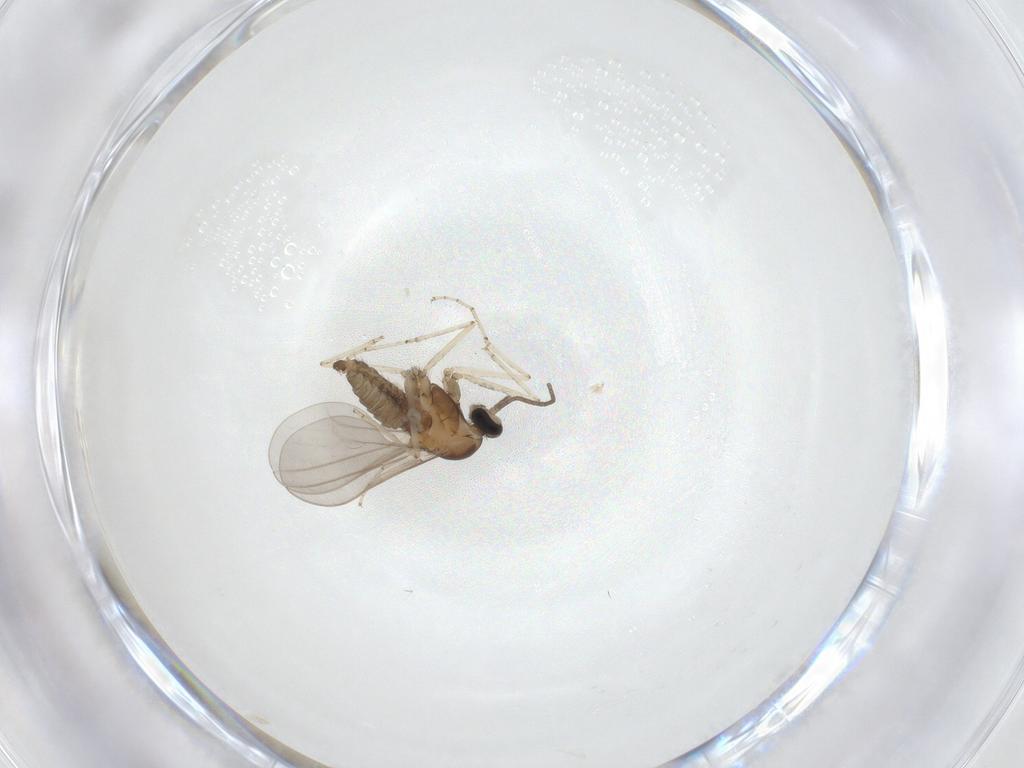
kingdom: Animalia
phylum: Arthropoda
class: Insecta
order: Diptera
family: Cecidomyiidae
